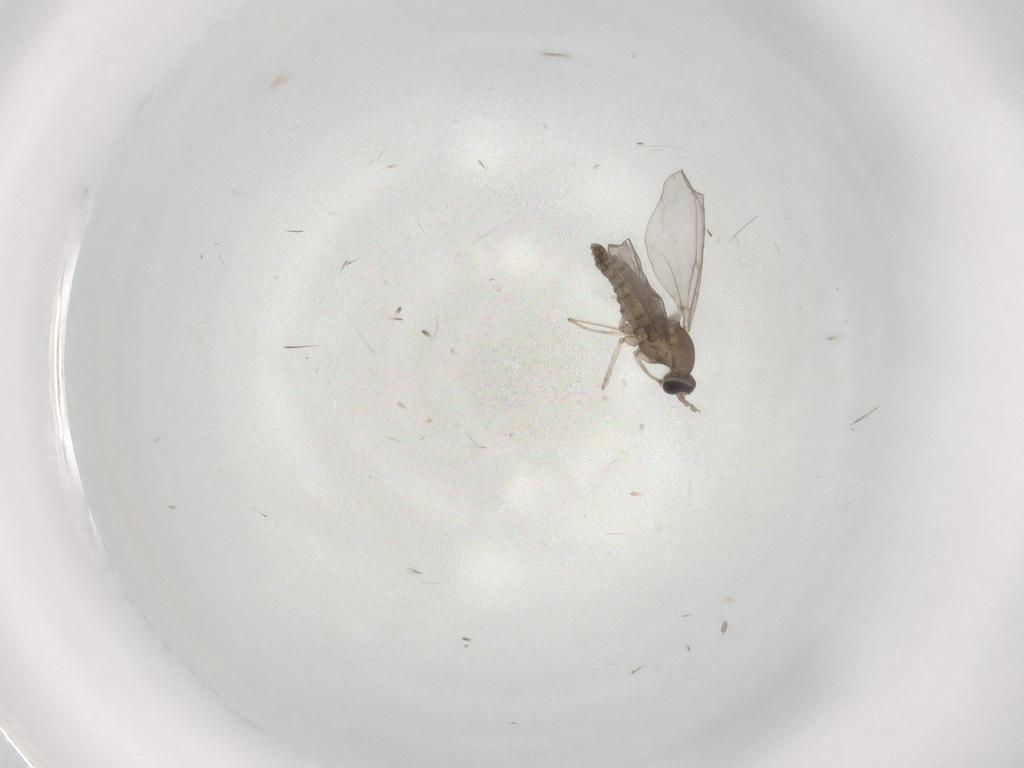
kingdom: Animalia
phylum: Arthropoda
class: Insecta
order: Diptera
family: Cecidomyiidae
